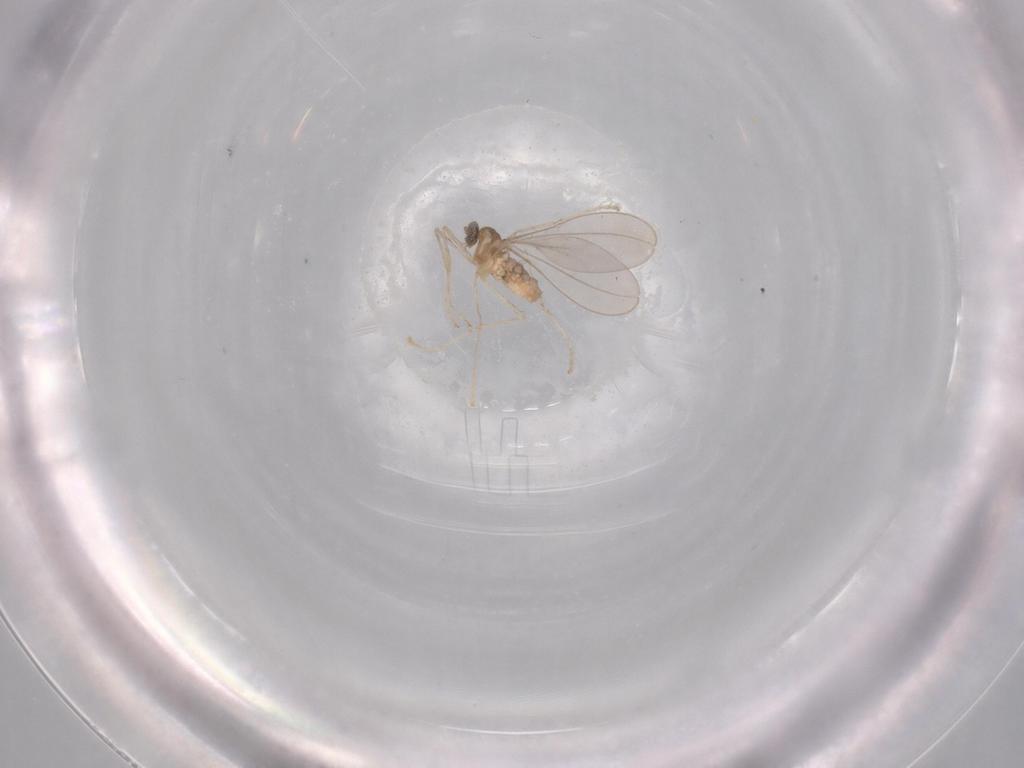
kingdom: Animalia
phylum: Arthropoda
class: Insecta
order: Diptera
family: Cecidomyiidae
